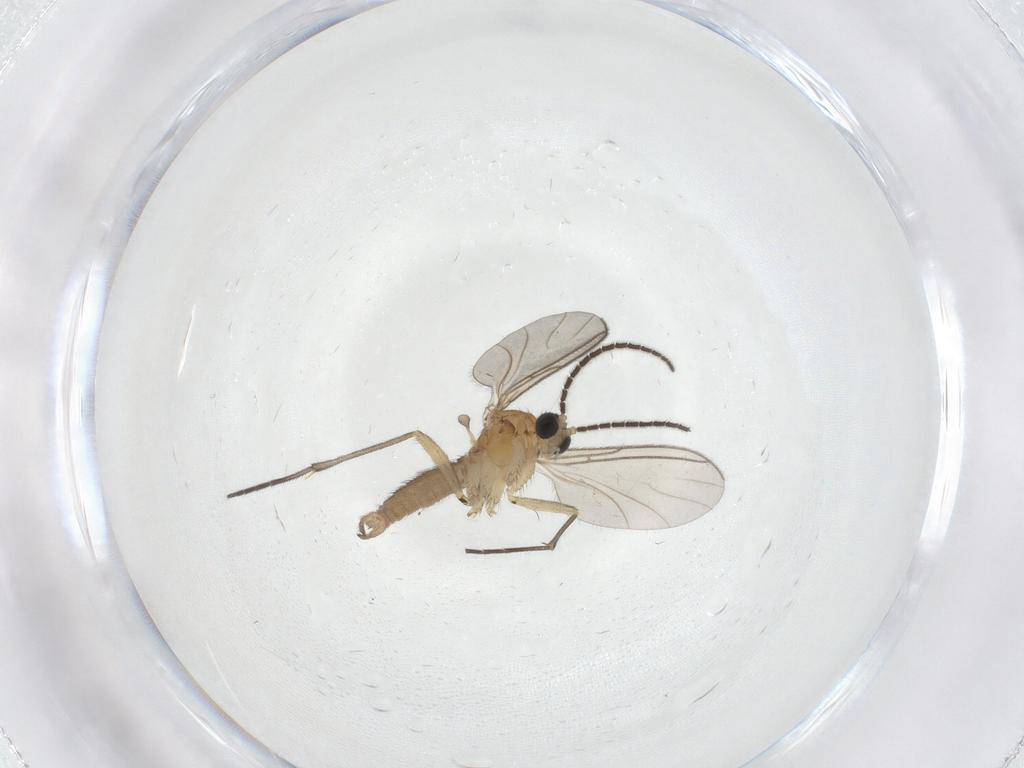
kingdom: Animalia
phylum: Arthropoda
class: Insecta
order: Diptera
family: Sciaridae
